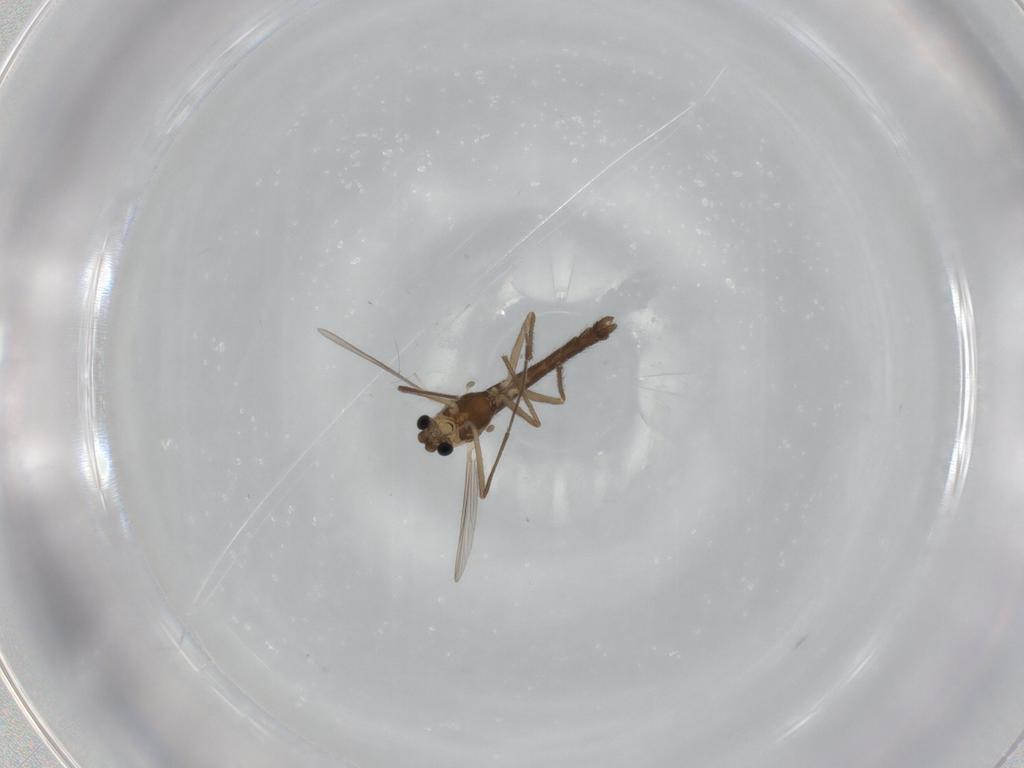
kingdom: Animalia
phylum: Arthropoda
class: Insecta
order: Diptera
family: Chironomidae
